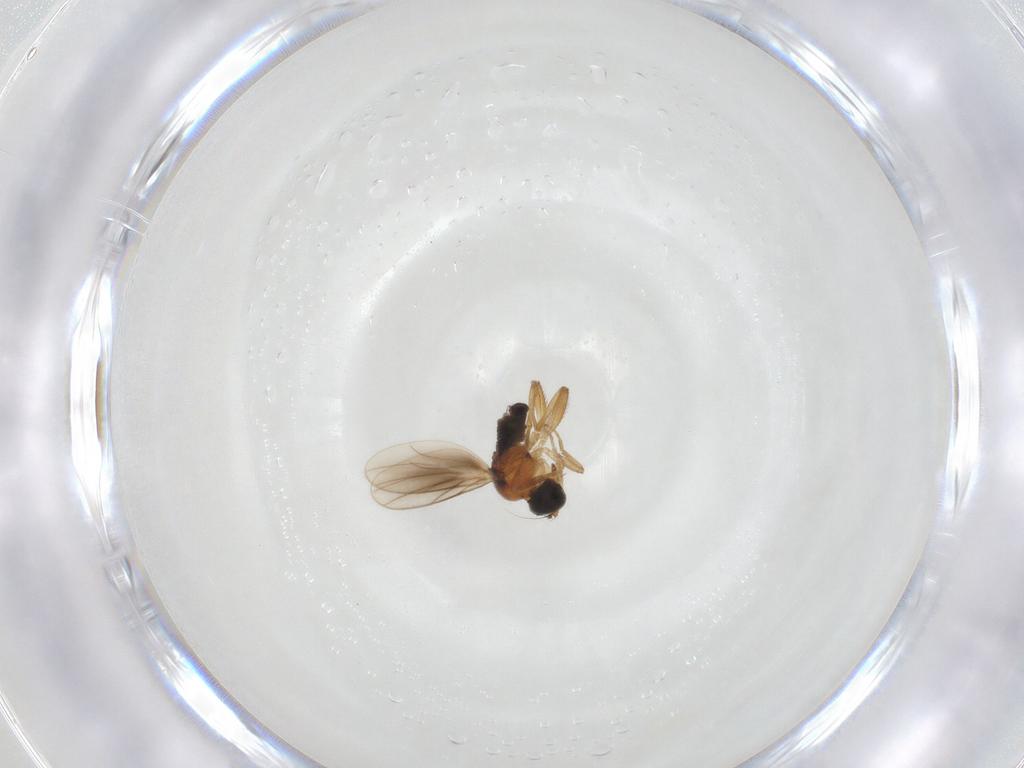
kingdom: Animalia
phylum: Arthropoda
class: Insecta
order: Diptera
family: Hybotidae
